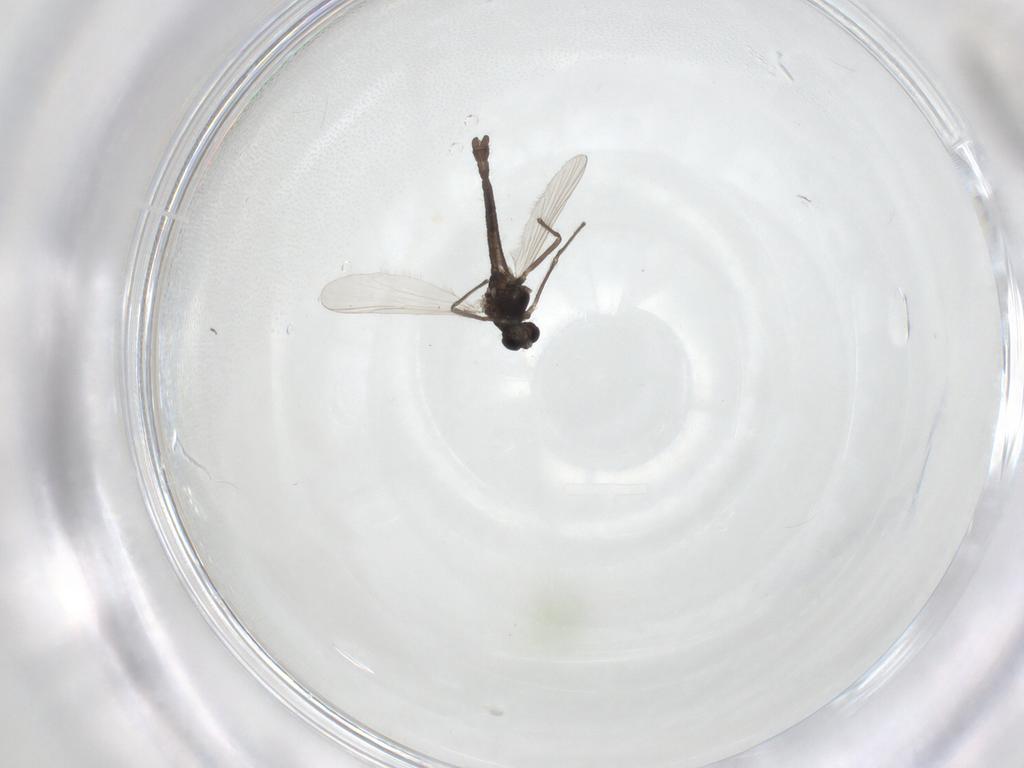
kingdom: Animalia
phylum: Arthropoda
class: Insecta
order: Diptera
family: Chironomidae
